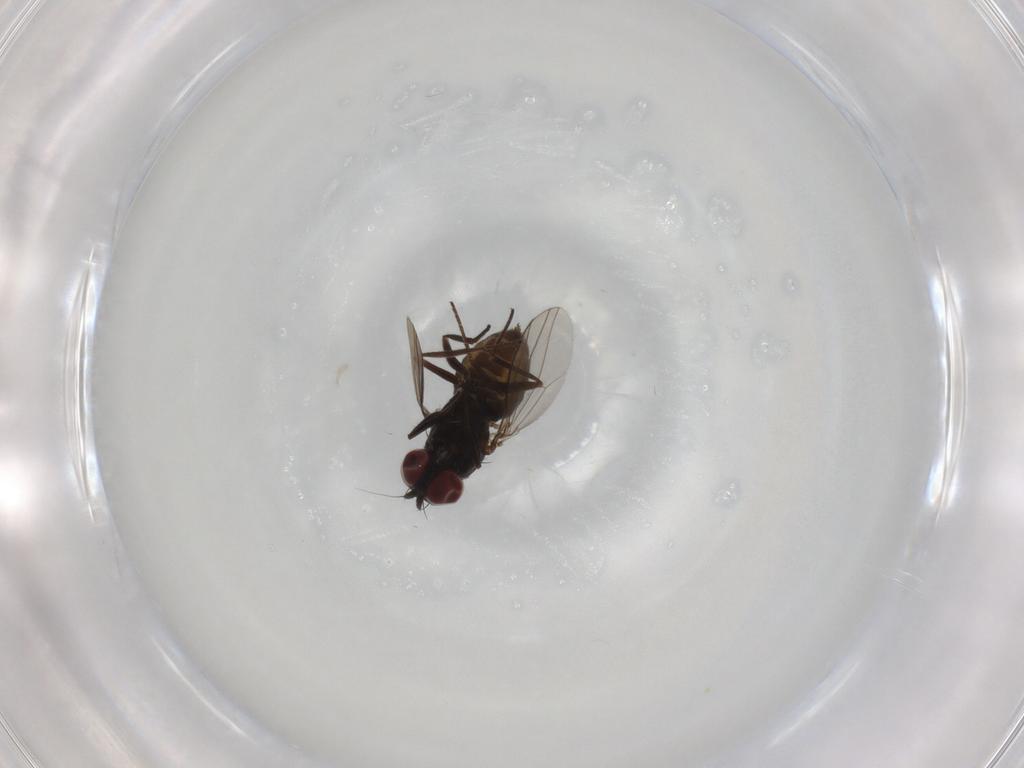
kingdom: Animalia
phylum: Arthropoda
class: Insecta
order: Diptera
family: Dolichopodidae
